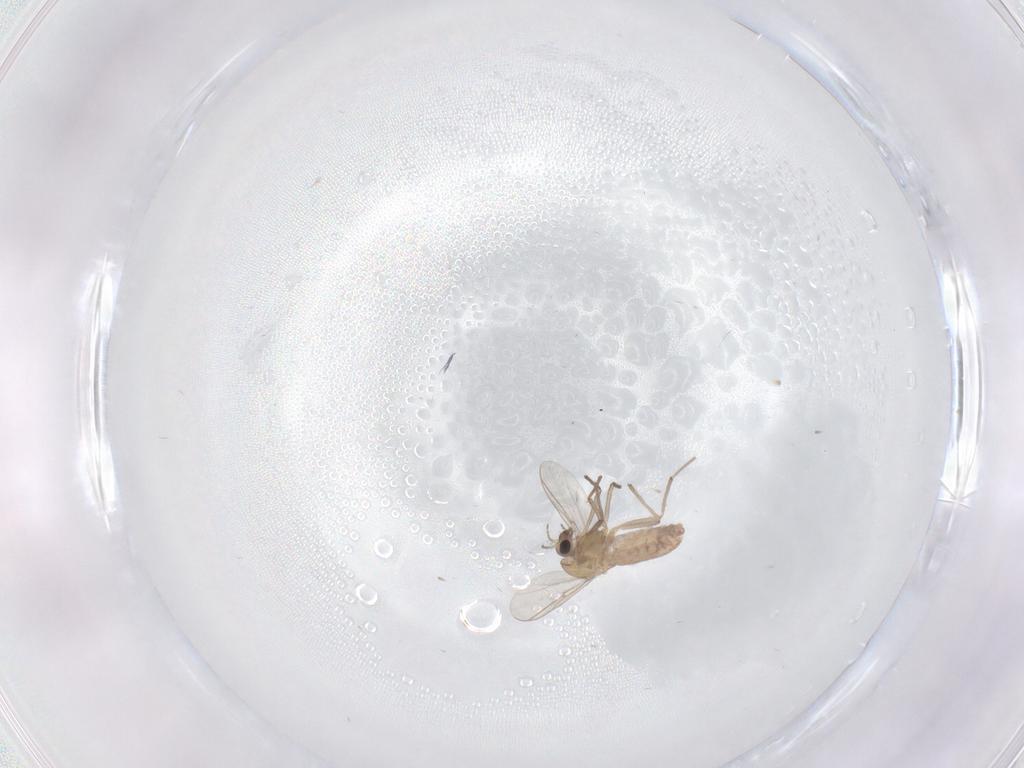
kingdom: Animalia
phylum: Arthropoda
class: Insecta
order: Diptera
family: Chironomidae
